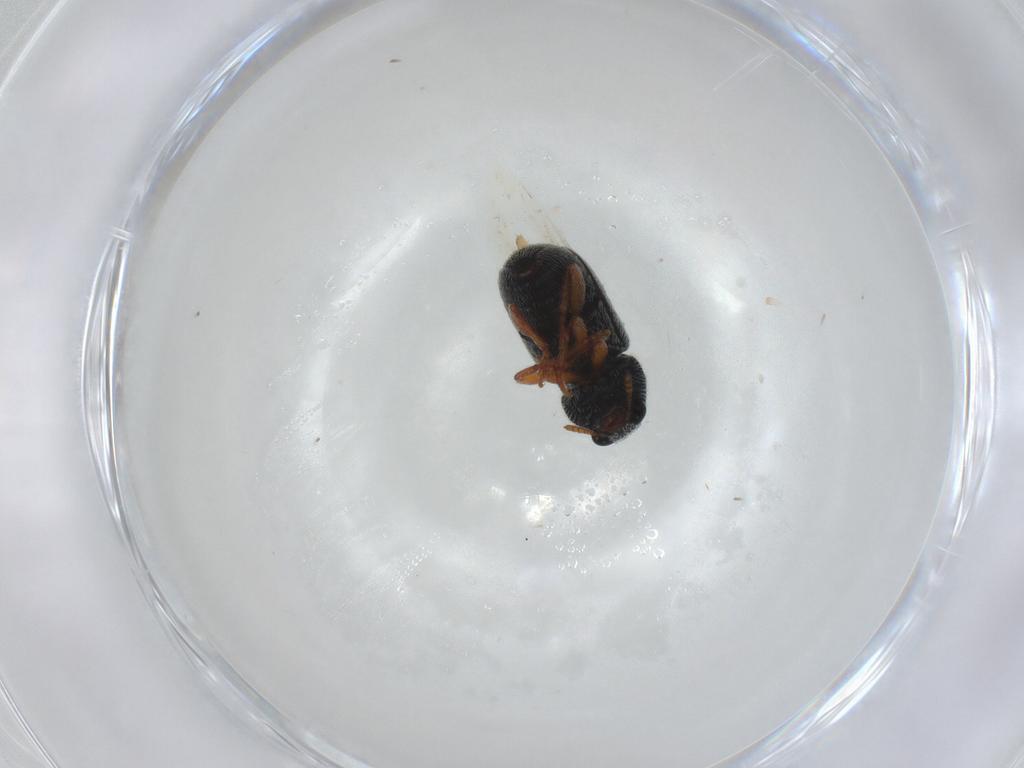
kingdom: Animalia
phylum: Arthropoda
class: Insecta
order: Coleoptera
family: Anthribidae
